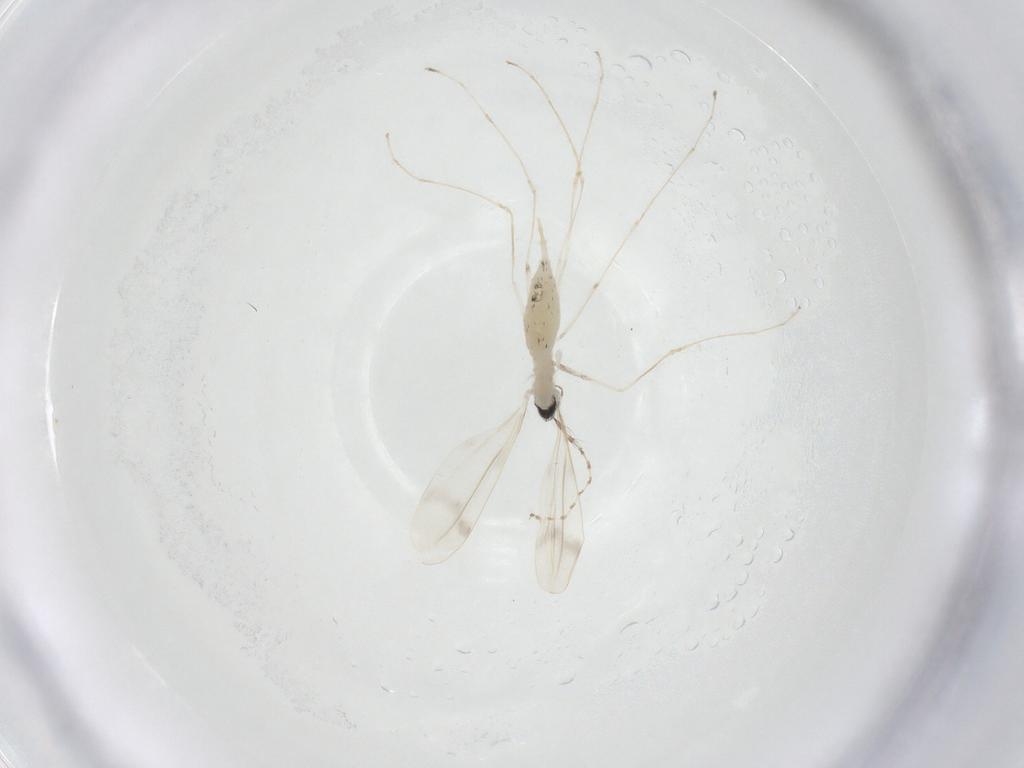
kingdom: Animalia
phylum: Arthropoda
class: Insecta
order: Diptera
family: Cecidomyiidae
